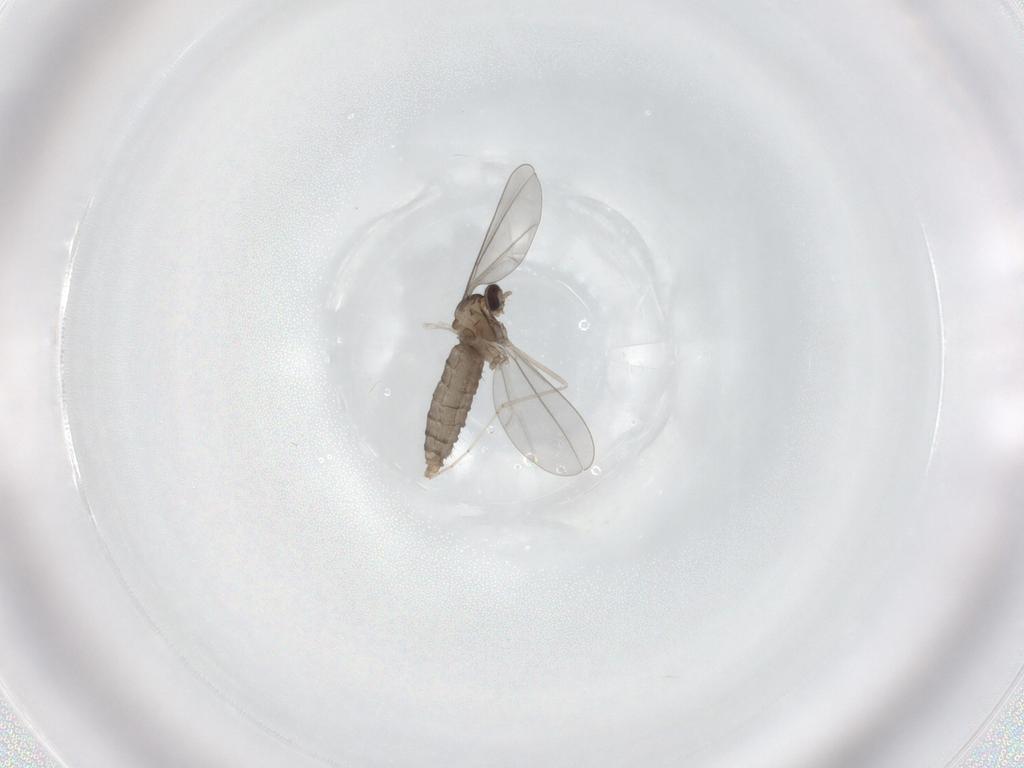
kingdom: Animalia
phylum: Arthropoda
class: Insecta
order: Diptera
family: Cecidomyiidae
